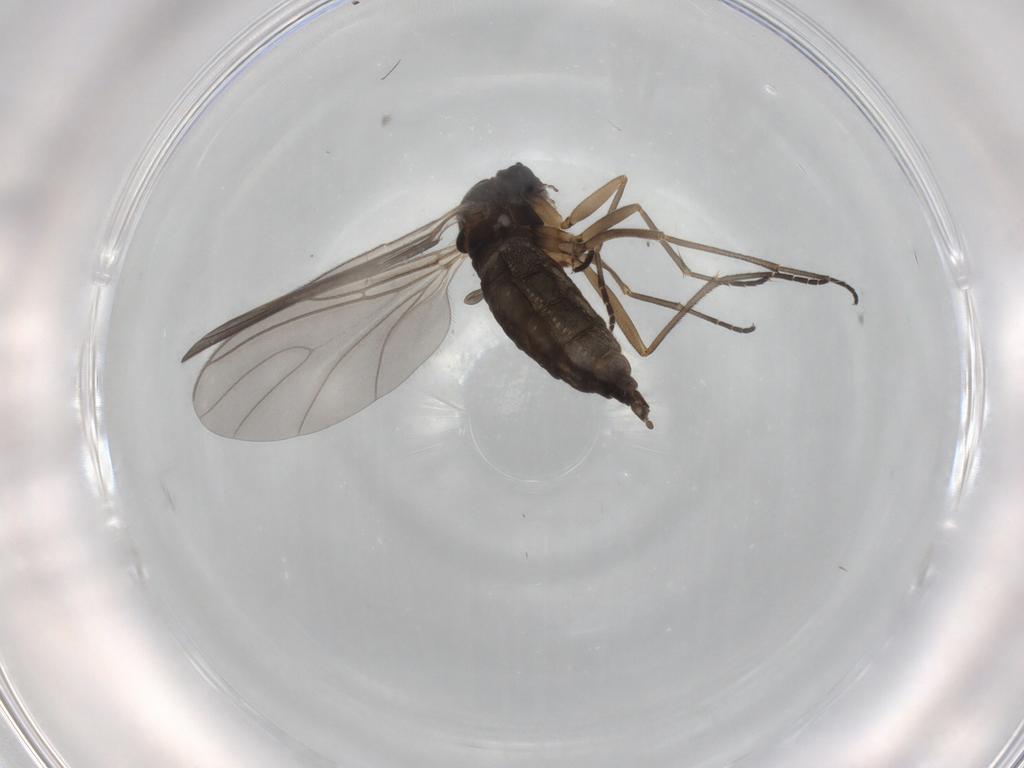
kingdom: Animalia
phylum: Arthropoda
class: Insecta
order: Diptera
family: Sciaridae
